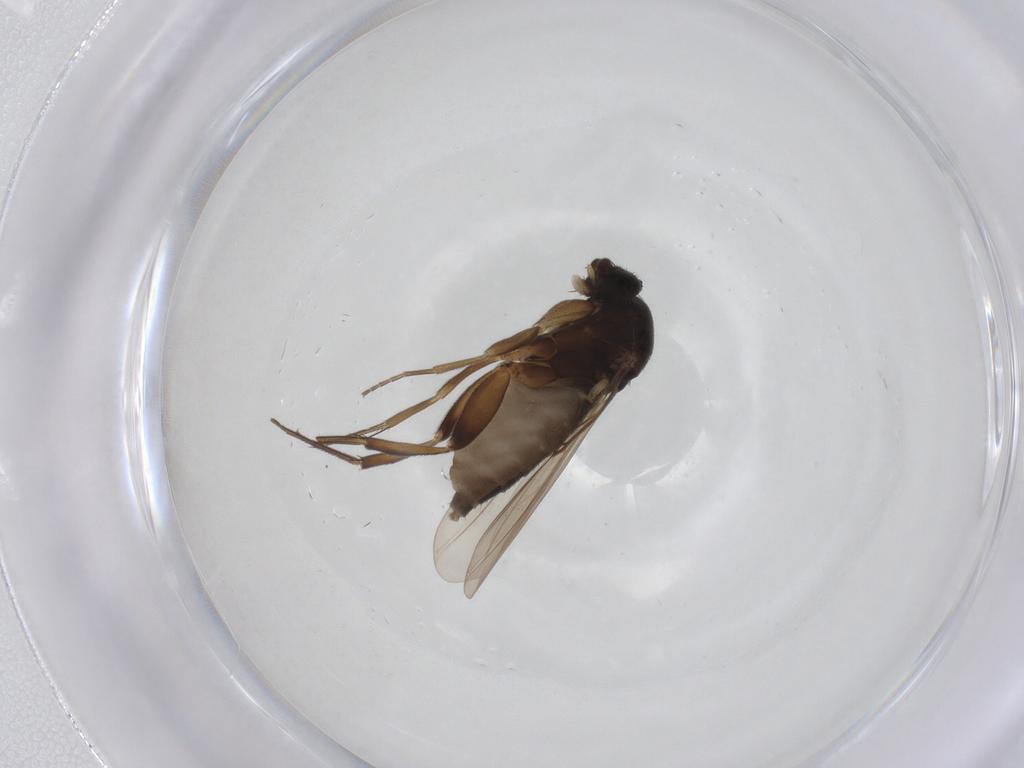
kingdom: Animalia
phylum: Arthropoda
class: Insecta
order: Diptera
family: Phoridae
